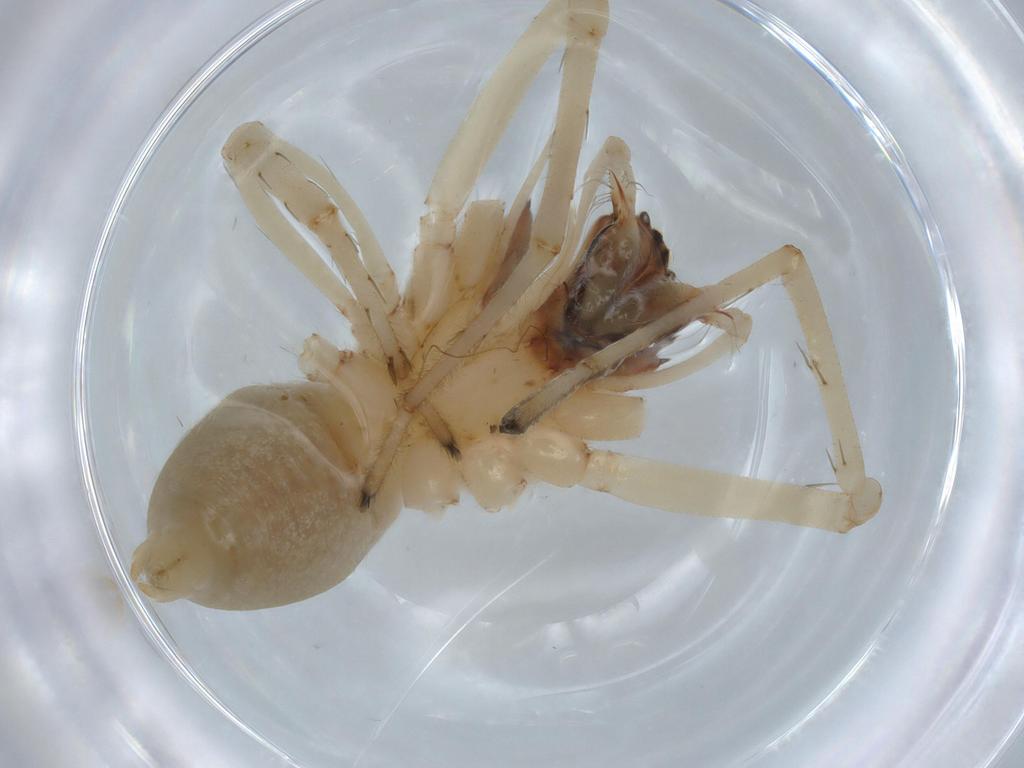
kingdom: Animalia
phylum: Arthropoda
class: Arachnida
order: Araneae
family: Cheiracanthiidae
